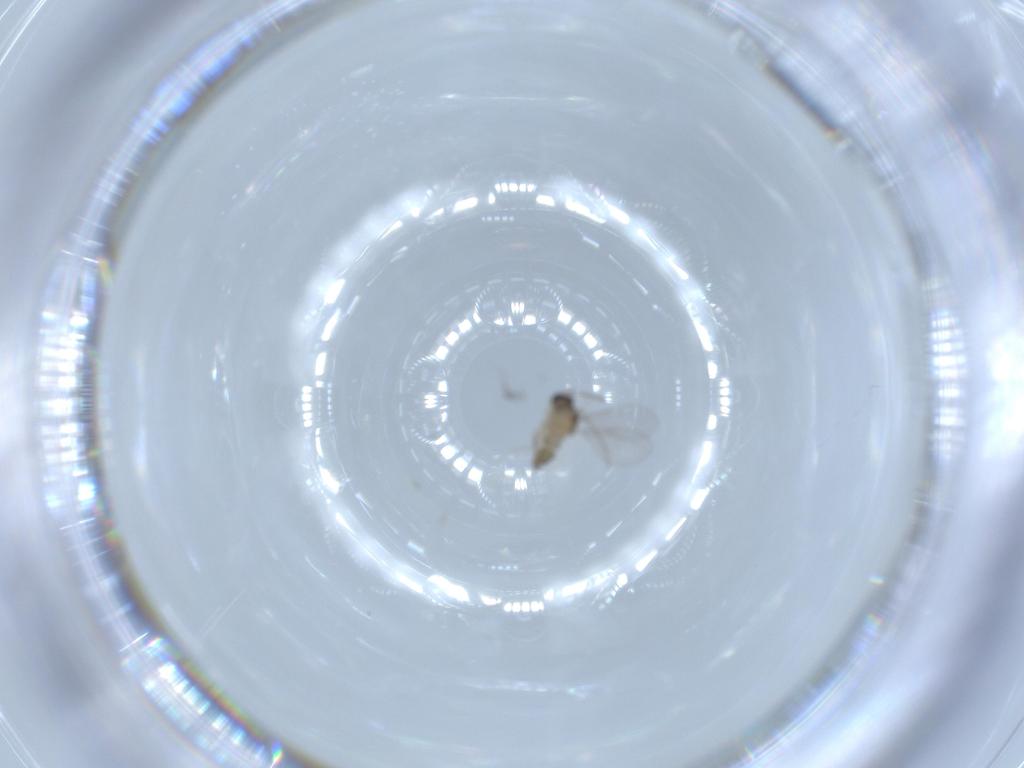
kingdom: Animalia
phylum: Arthropoda
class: Insecta
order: Diptera
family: Cecidomyiidae
